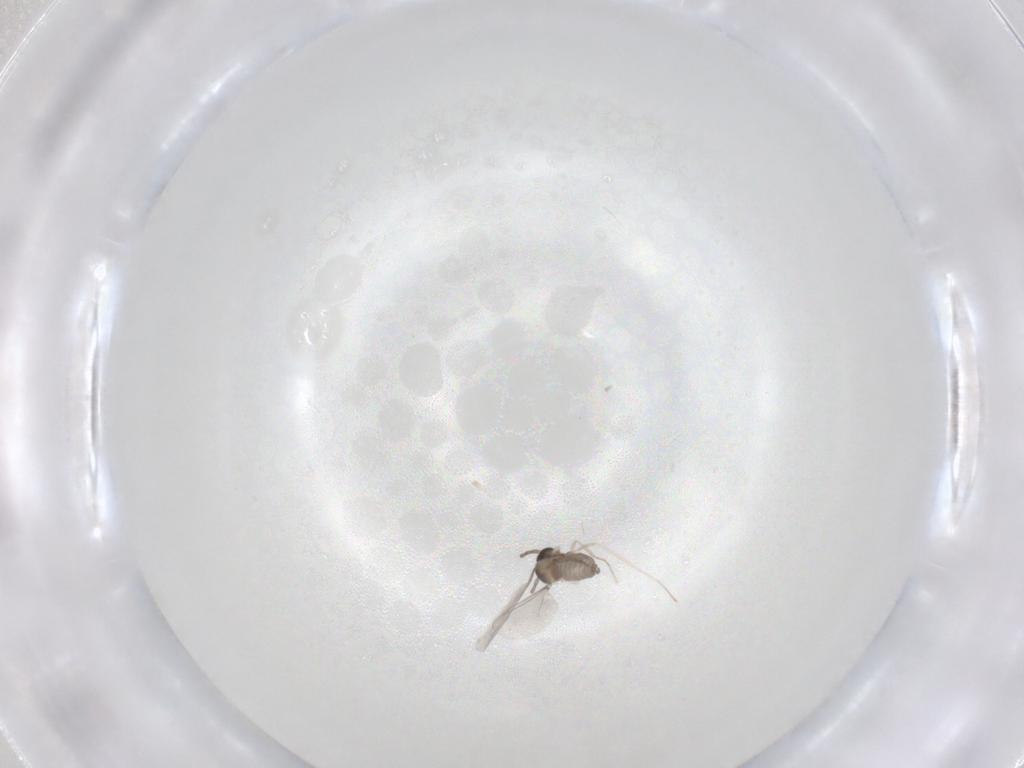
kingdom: Animalia
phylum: Arthropoda
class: Insecta
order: Diptera
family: Cecidomyiidae
